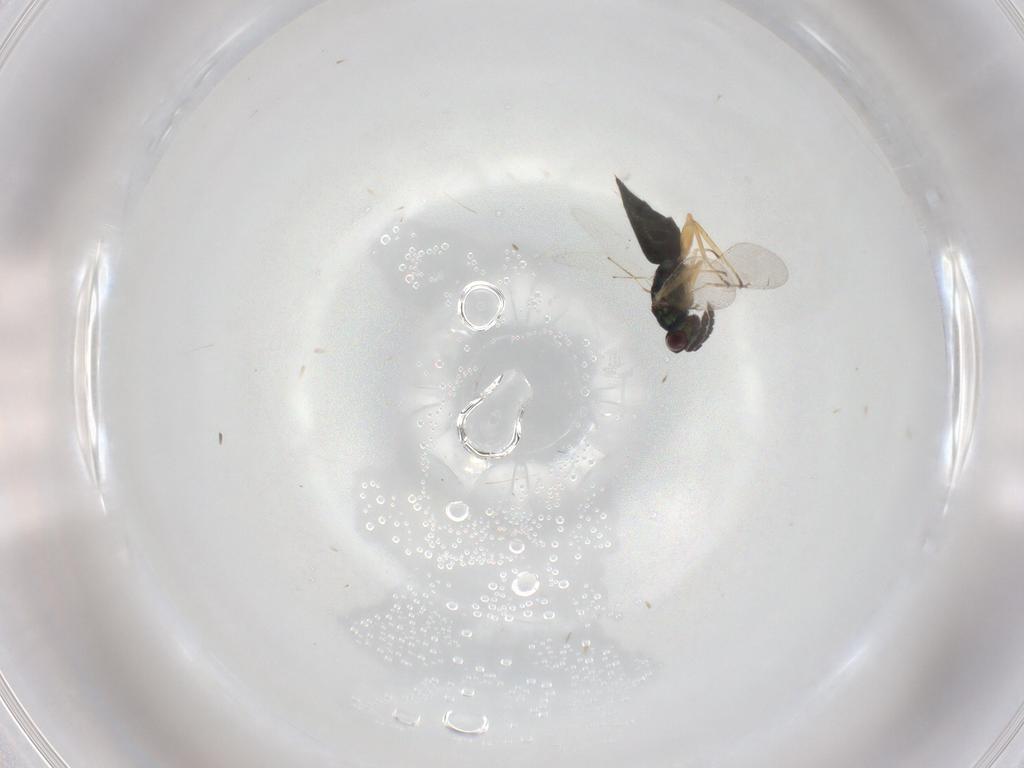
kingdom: Animalia
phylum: Arthropoda
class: Insecta
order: Hymenoptera
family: Eulophidae
